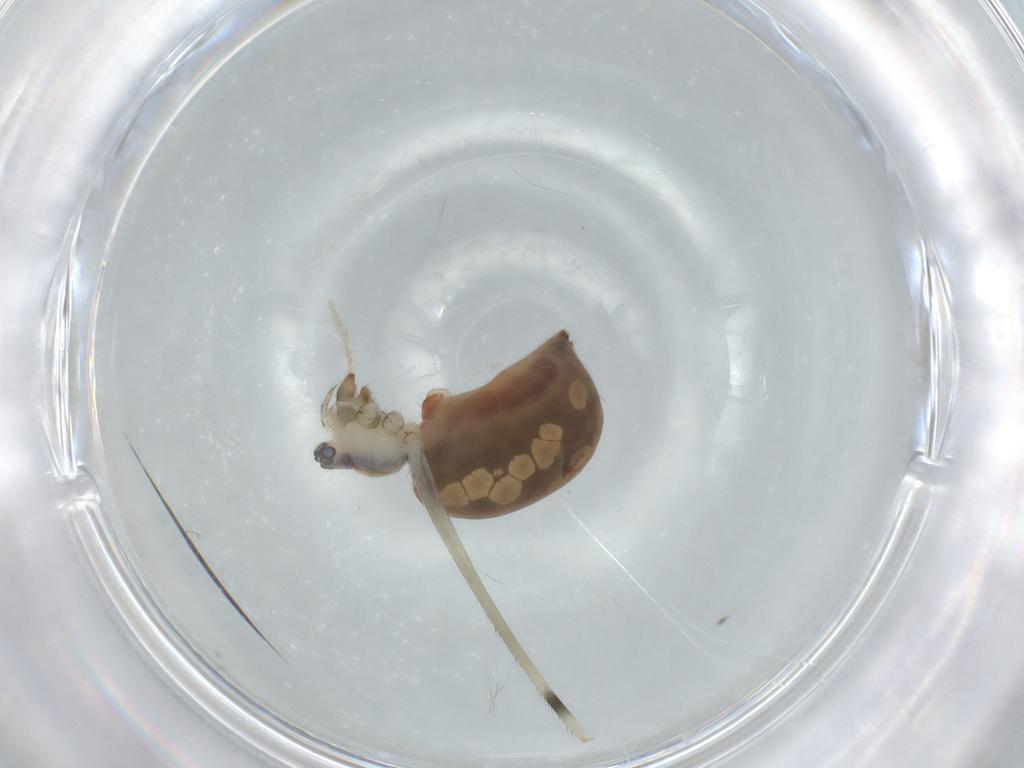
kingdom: Animalia
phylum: Arthropoda
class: Arachnida
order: Araneae
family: Pholcidae
